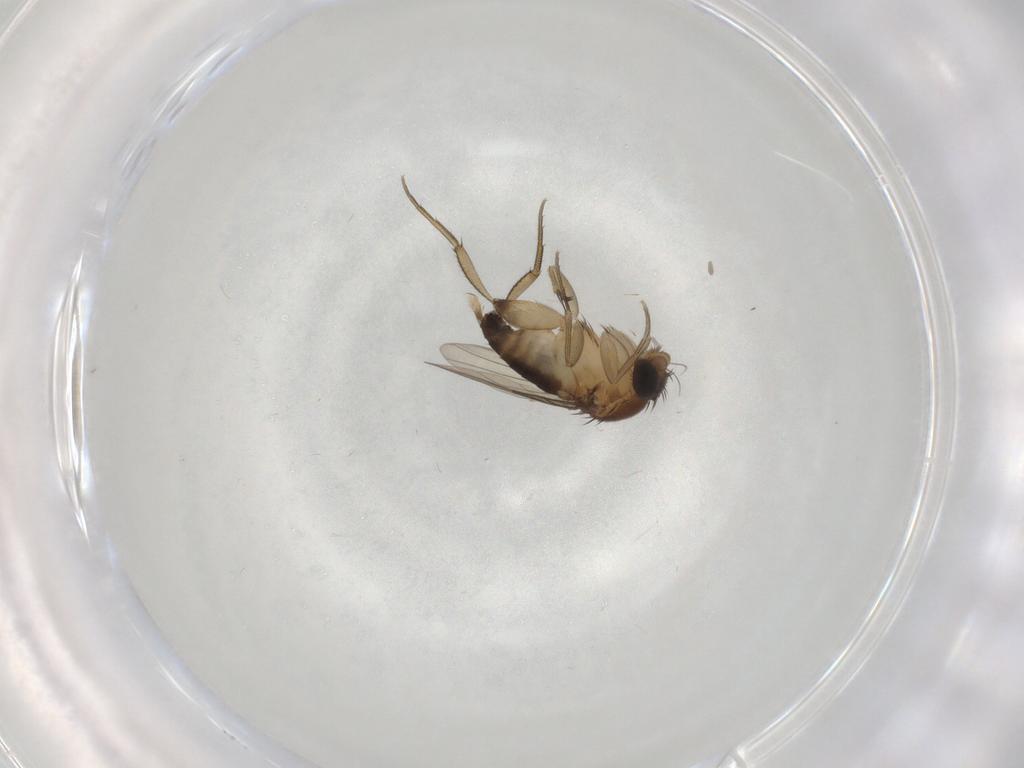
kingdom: Animalia
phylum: Arthropoda
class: Insecta
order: Diptera
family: Phoridae
